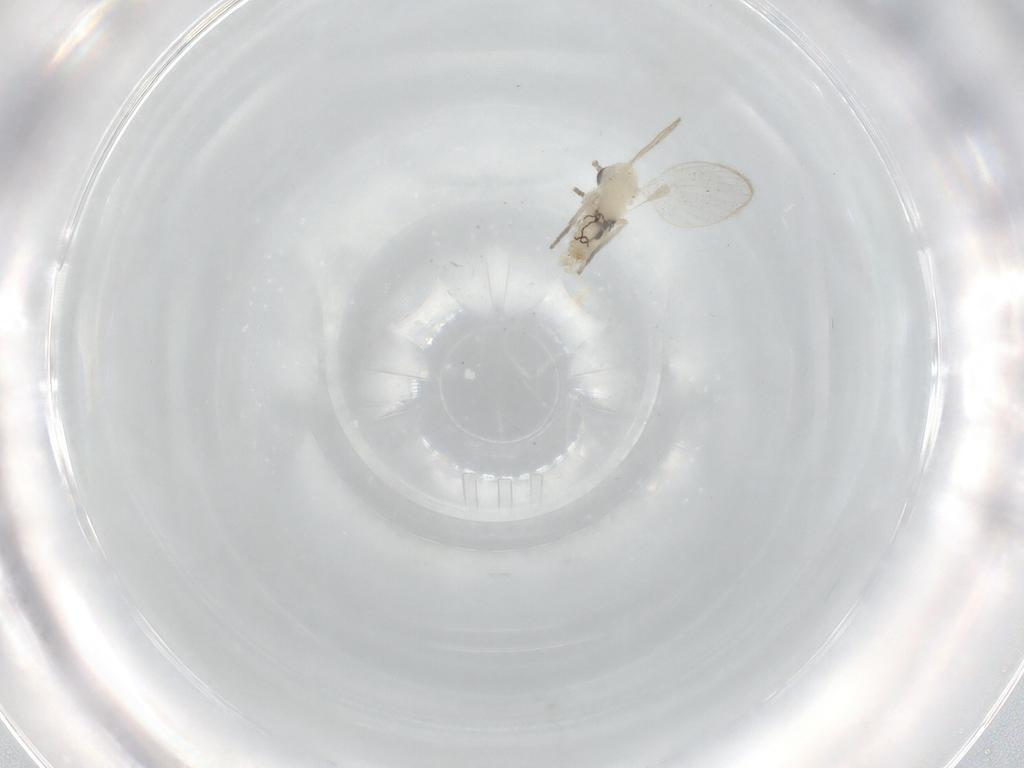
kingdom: Animalia
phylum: Arthropoda
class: Insecta
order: Diptera
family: Psychodidae
